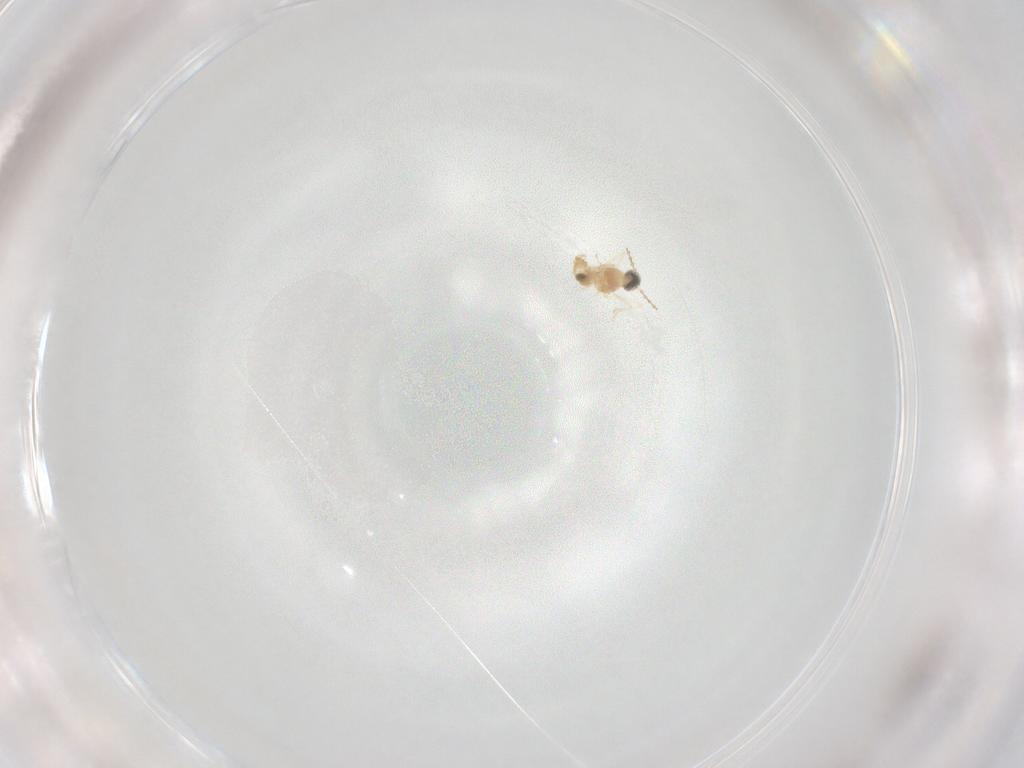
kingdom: Animalia
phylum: Arthropoda
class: Insecta
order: Diptera
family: Cecidomyiidae
